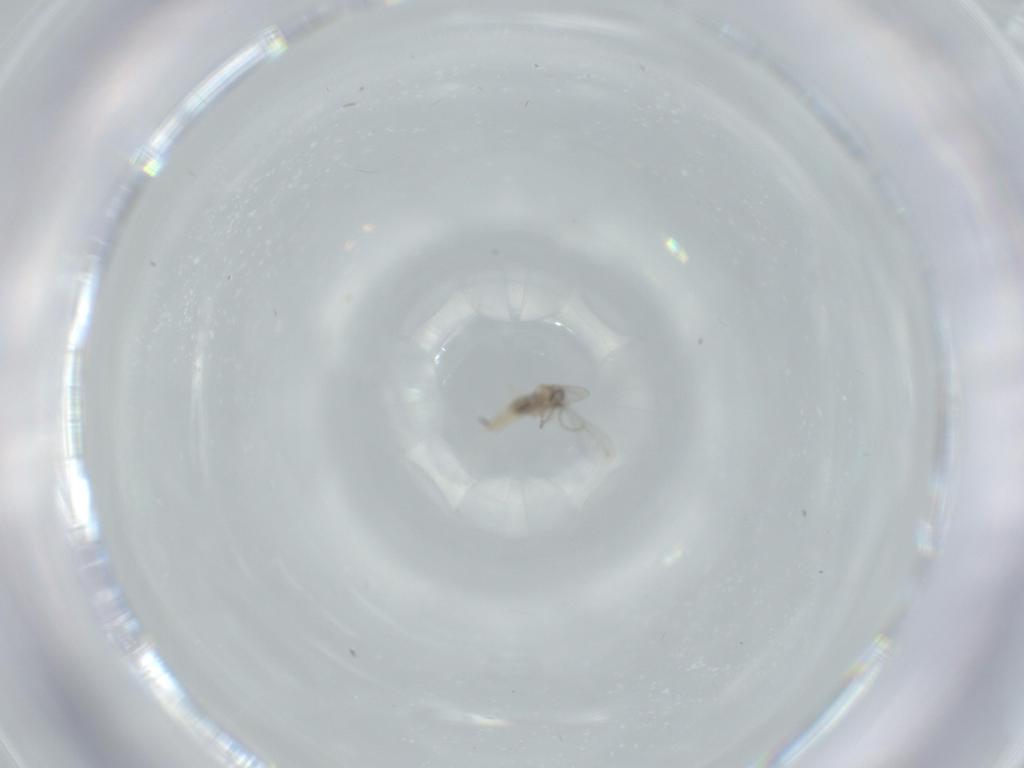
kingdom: Animalia
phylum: Arthropoda
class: Insecta
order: Diptera
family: Cecidomyiidae
